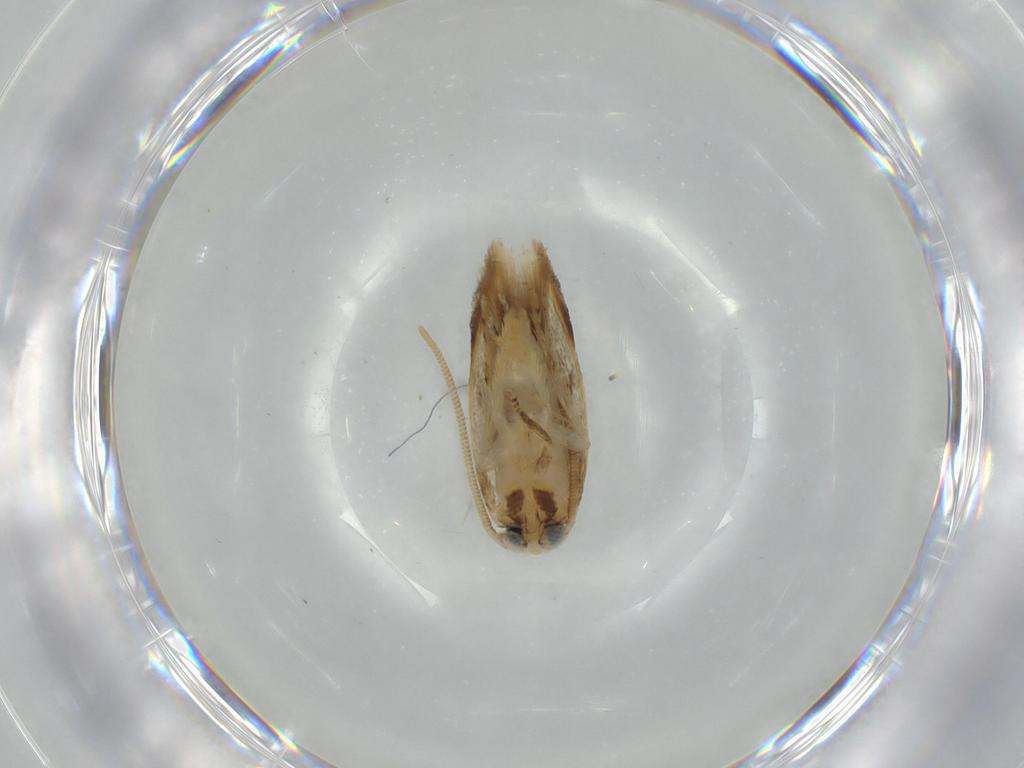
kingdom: Animalia
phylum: Arthropoda
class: Insecta
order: Lepidoptera
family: Opostegidae
